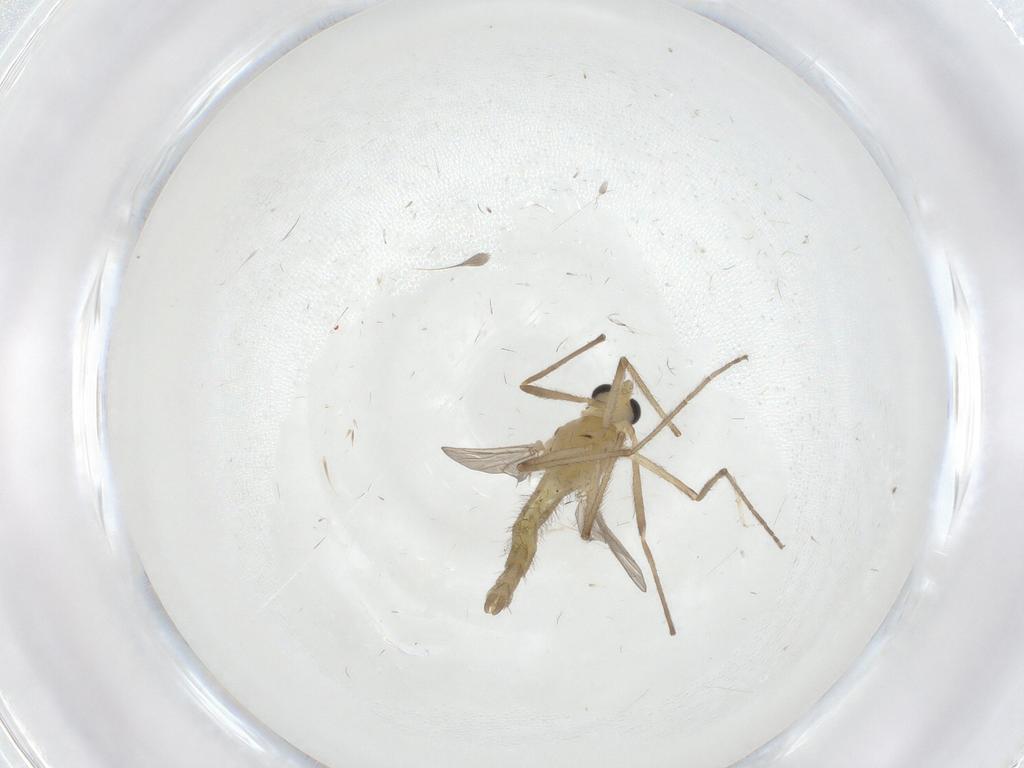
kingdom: Animalia
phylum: Arthropoda
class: Insecta
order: Diptera
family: Chironomidae
